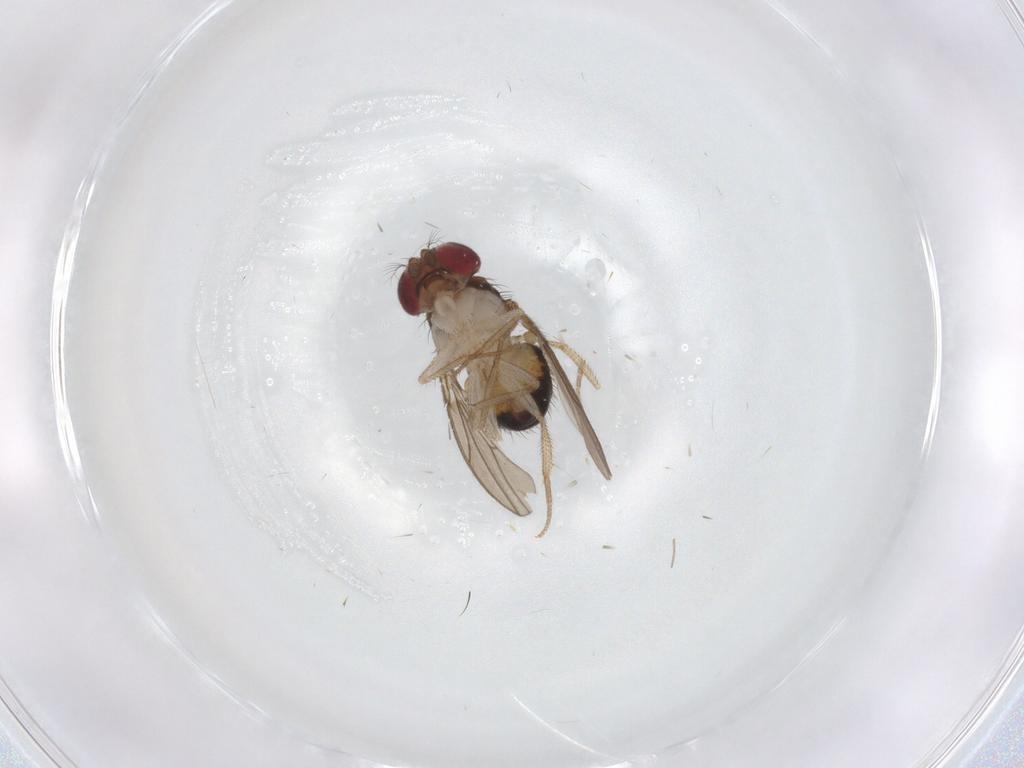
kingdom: Animalia
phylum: Arthropoda
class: Insecta
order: Diptera
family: Drosophilidae
